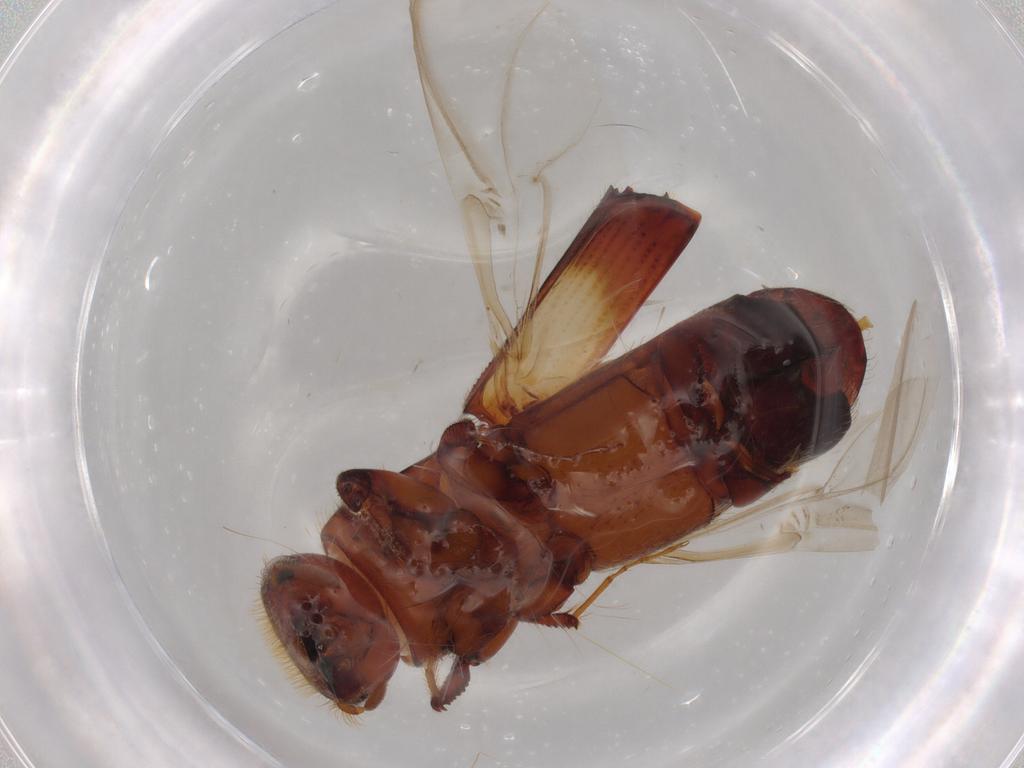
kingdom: Animalia
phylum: Arthropoda
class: Insecta
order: Coleoptera
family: Curculionidae
